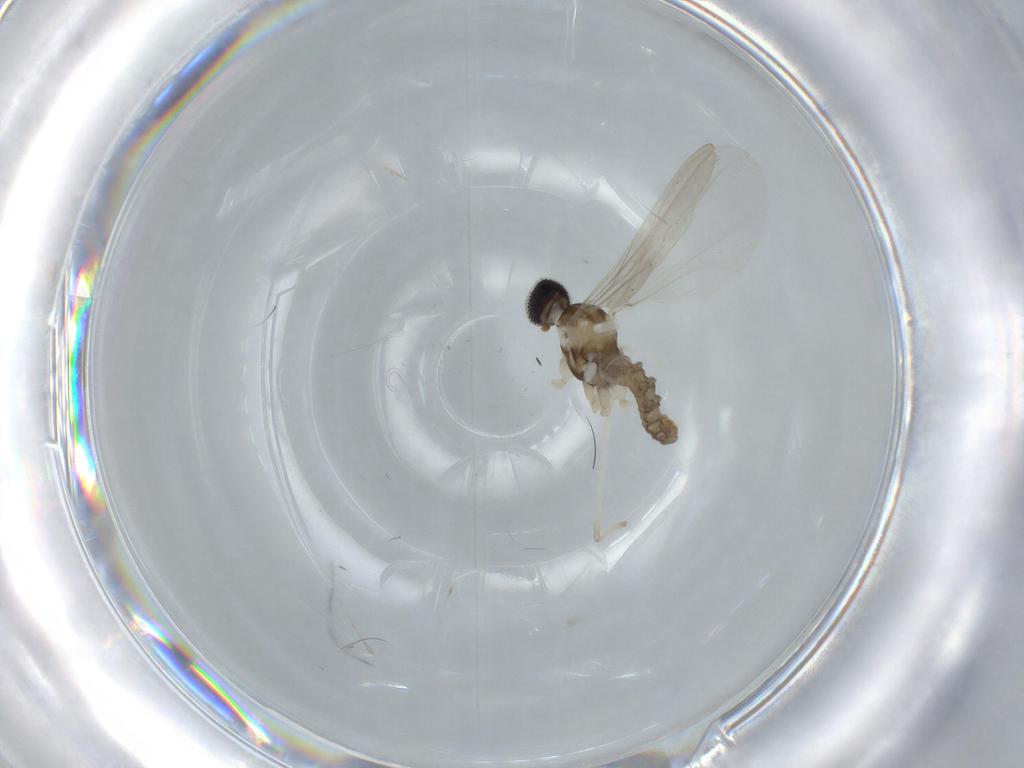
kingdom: Animalia
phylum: Arthropoda
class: Insecta
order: Diptera
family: Cecidomyiidae
